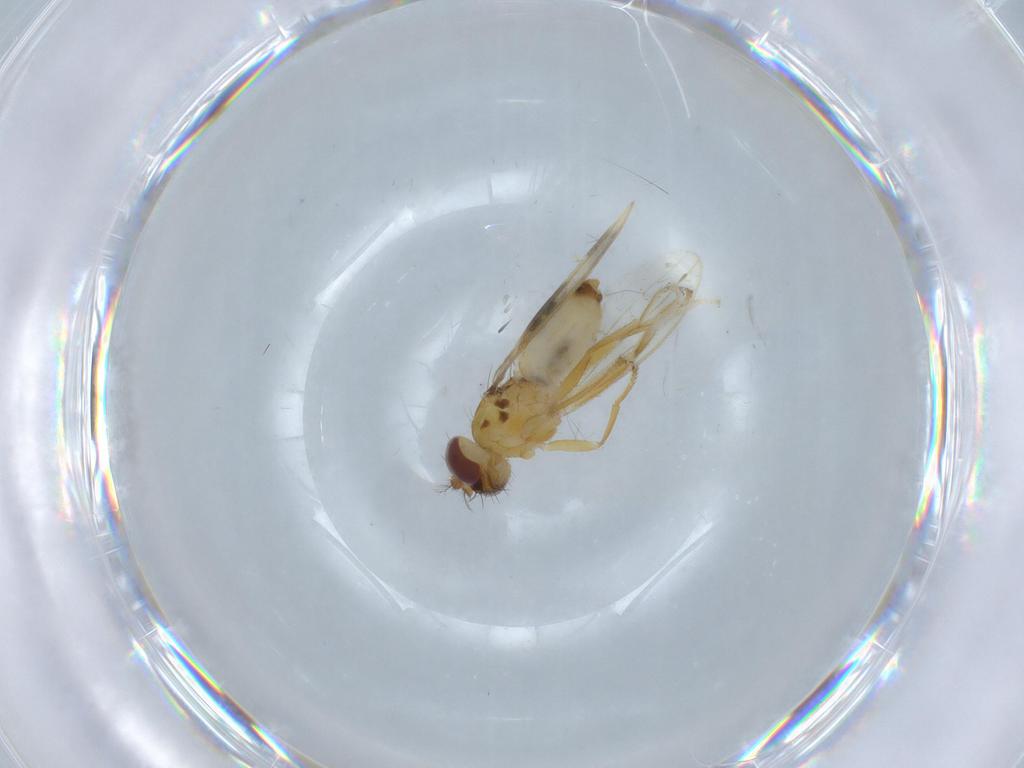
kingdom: Animalia
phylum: Arthropoda
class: Insecta
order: Diptera
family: Periscelididae
